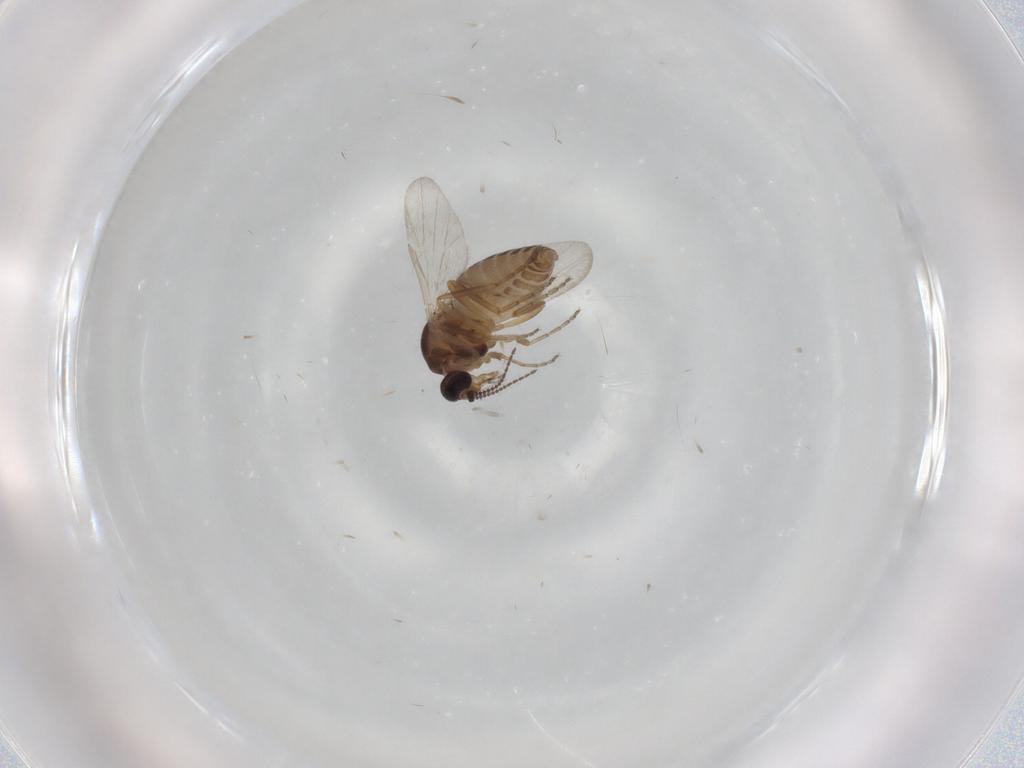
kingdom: Animalia
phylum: Arthropoda
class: Insecta
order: Diptera
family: Ceratopogonidae
